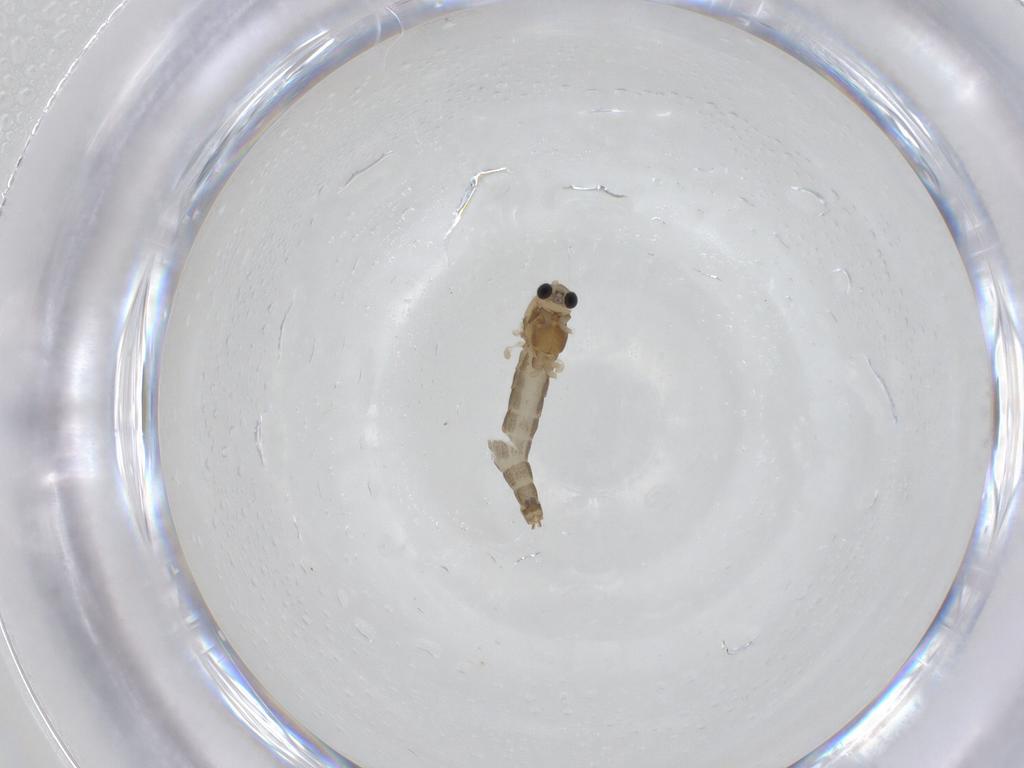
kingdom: Animalia
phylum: Arthropoda
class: Insecta
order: Diptera
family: Chironomidae
